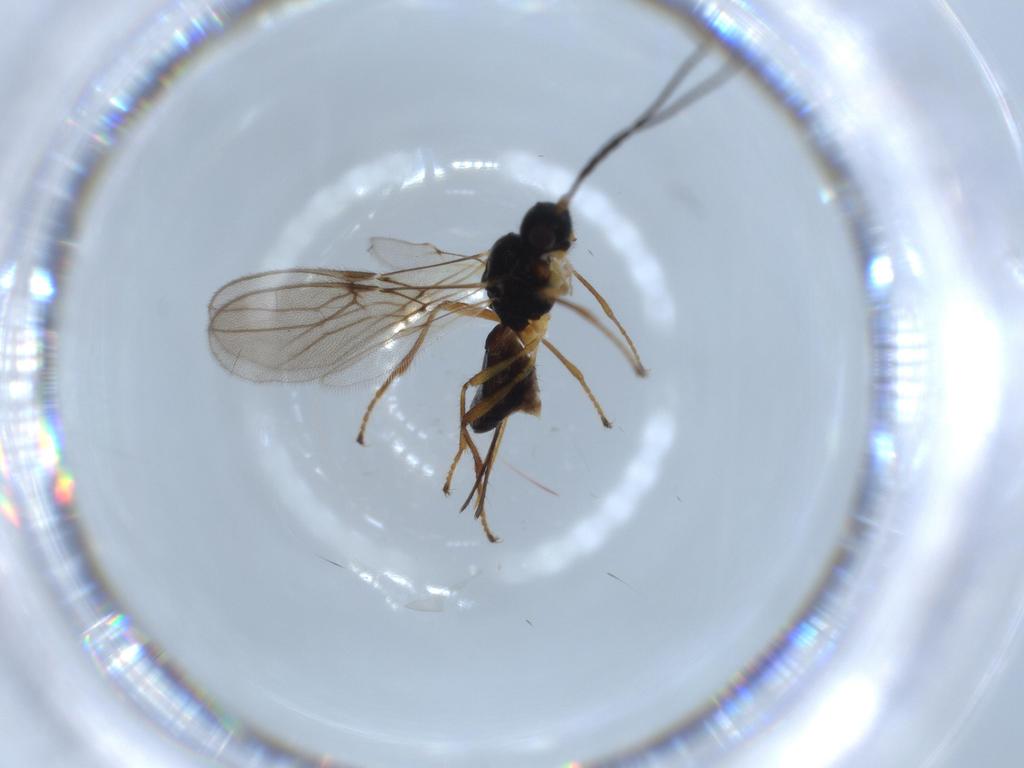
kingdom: Animalia
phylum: Arthropoda
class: Insecta
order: Hymenoptera
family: Braconidae
